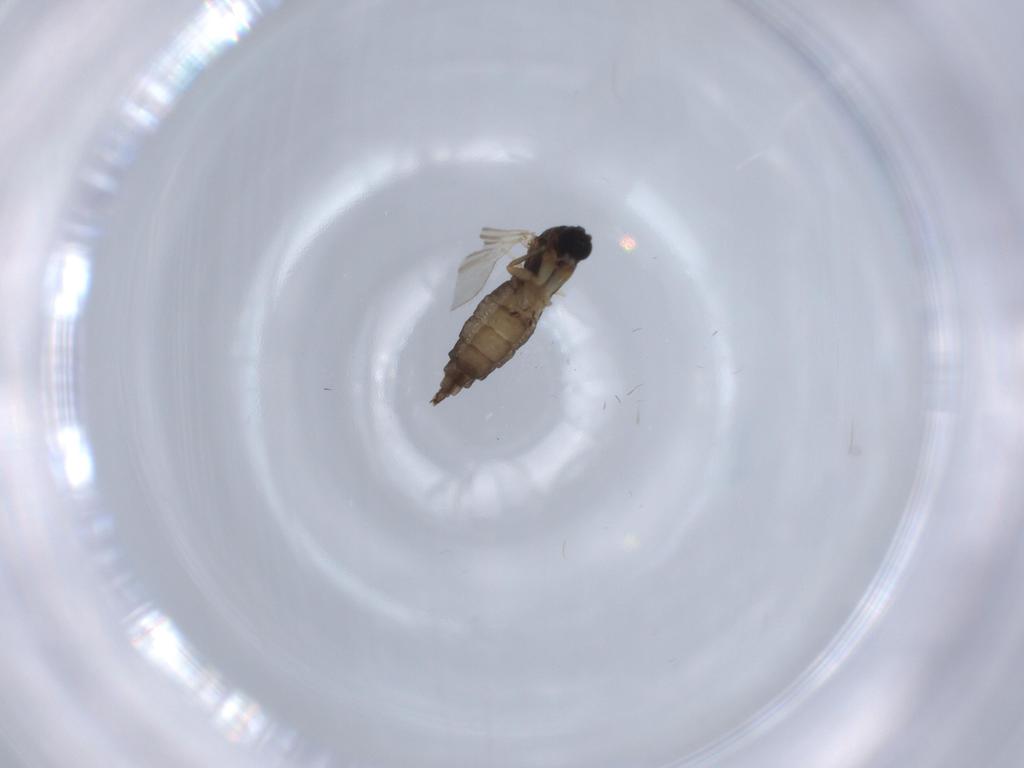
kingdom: Animalia
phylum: Arthropoda
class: Insecta
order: Diptera
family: Sciaridae
